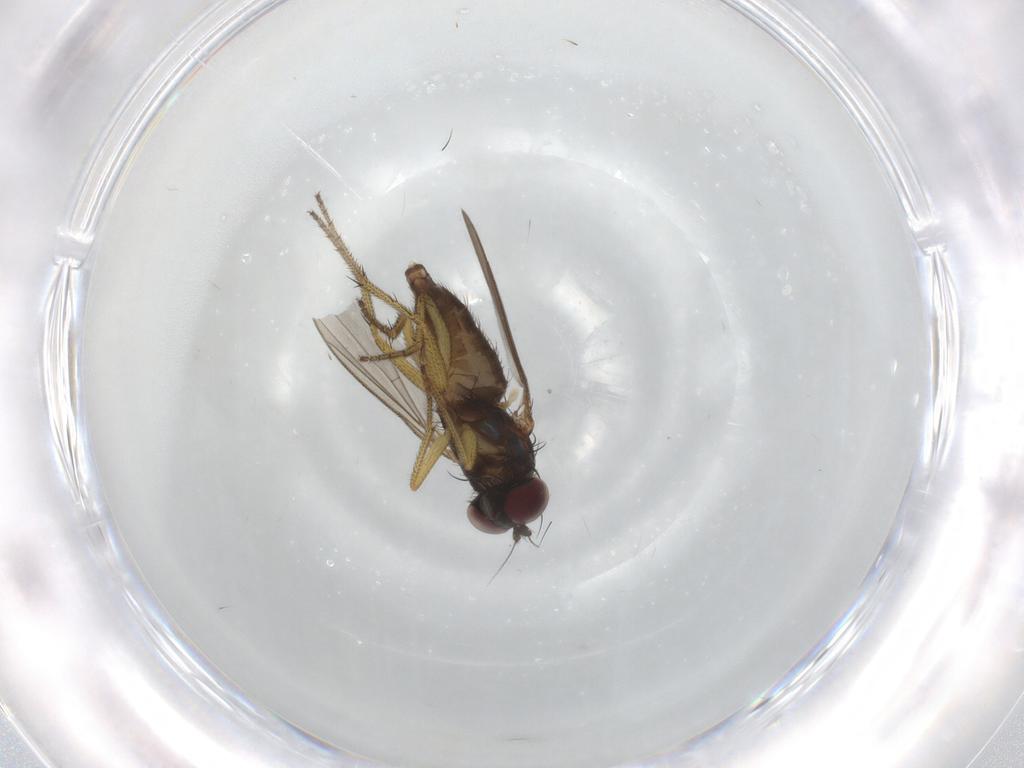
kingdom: Animalia
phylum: Arthropoda
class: Insecta
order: Diptera
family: Dolichopodidae
